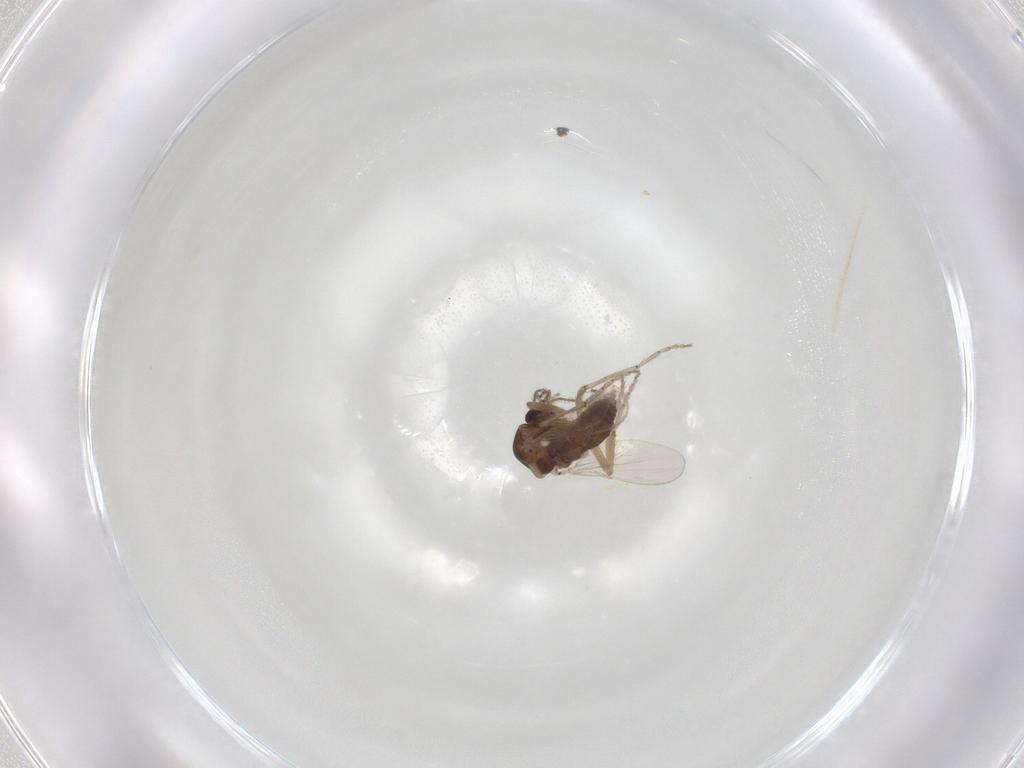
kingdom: Animalia
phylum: Arthropoda
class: Insecta
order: Diptera
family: Ceratopogonidae
